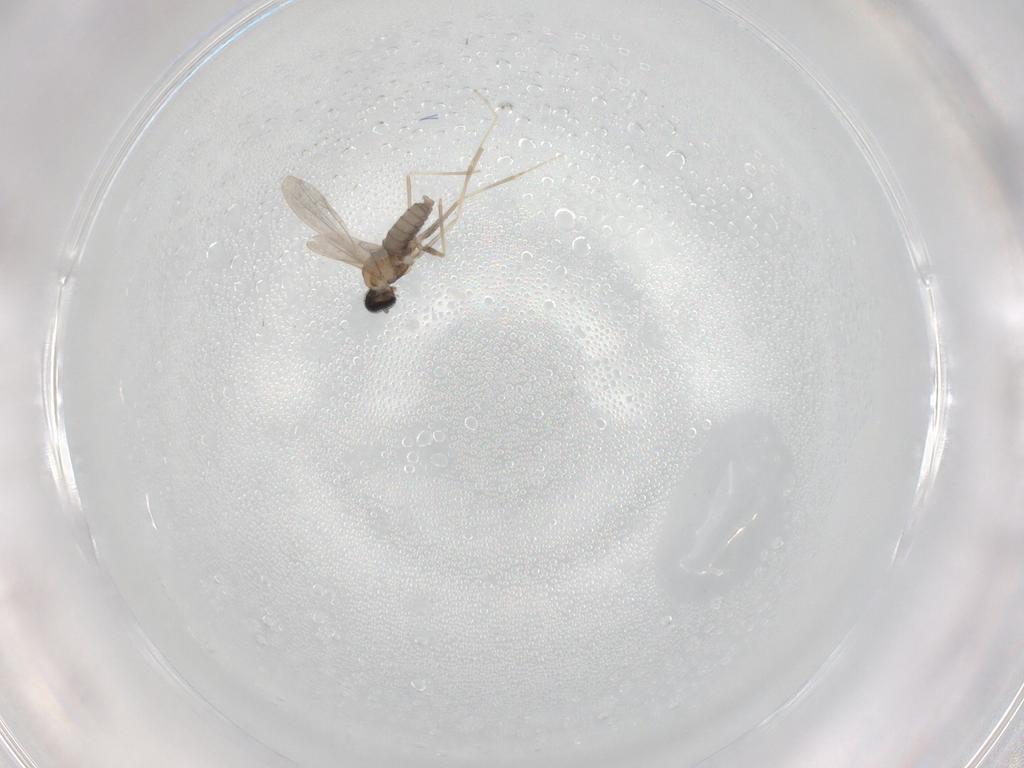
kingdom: Animalia
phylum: Arthropoda
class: Insecta
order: Diptera
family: Cecidomyiidae
